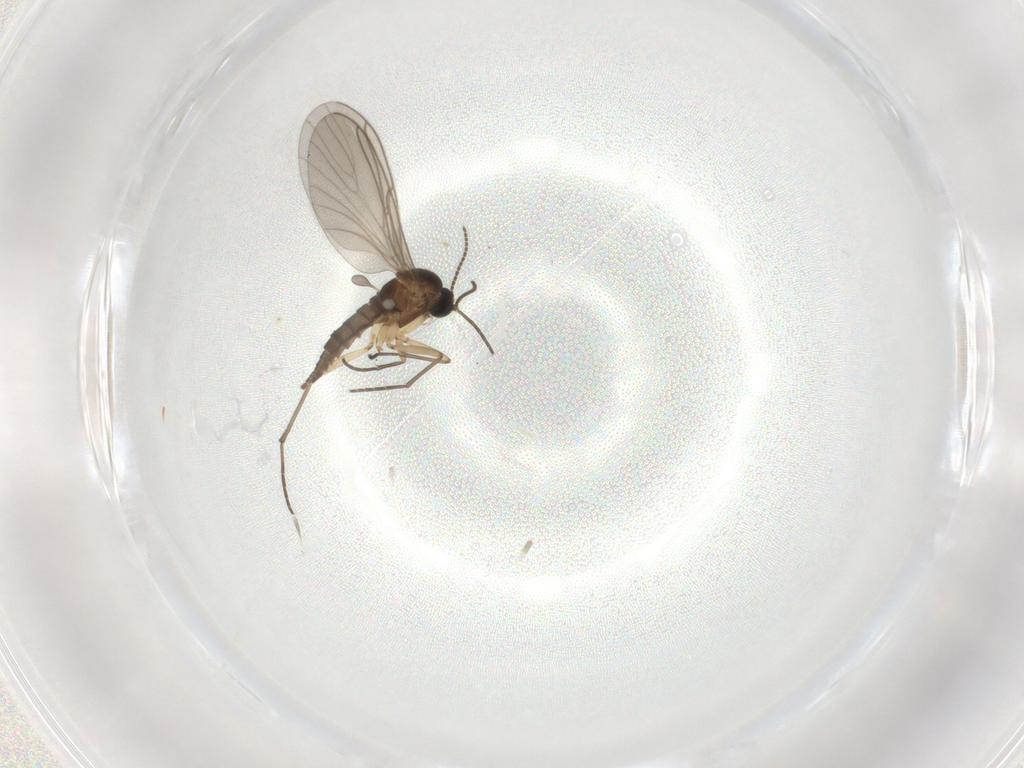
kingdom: Animalia
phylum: Arthropoda
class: Insecta
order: Diptera
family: Sciaridae
